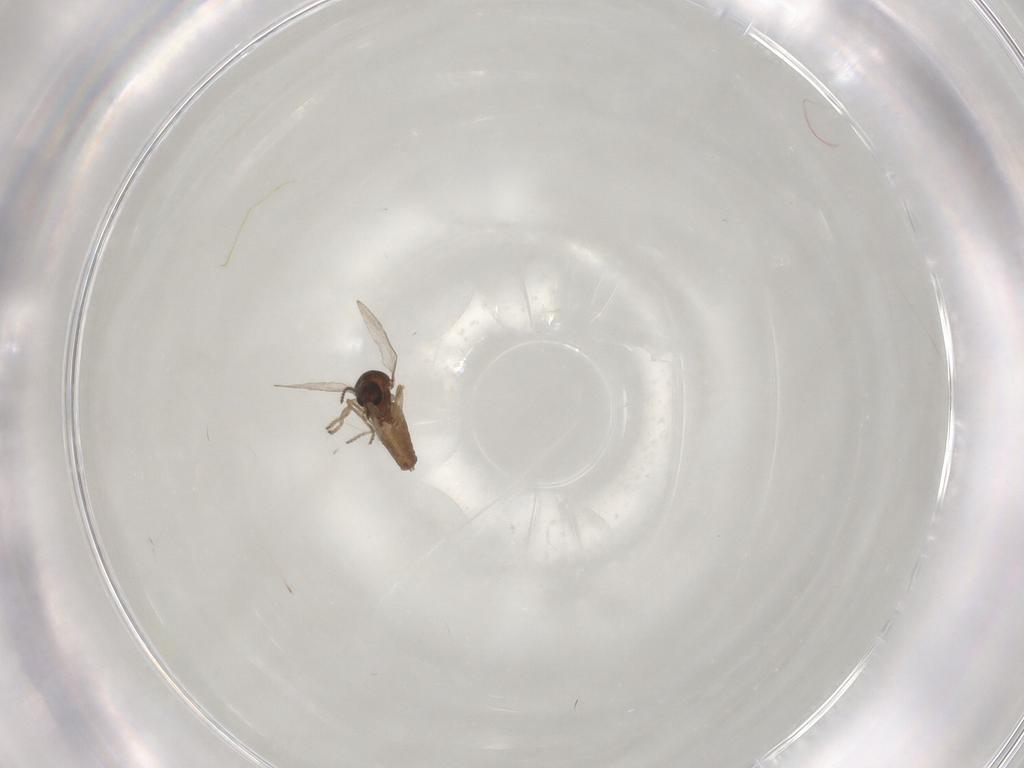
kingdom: Animalia
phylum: Arthropoda
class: Insecta
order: Diptera
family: Ceratopogonidae
